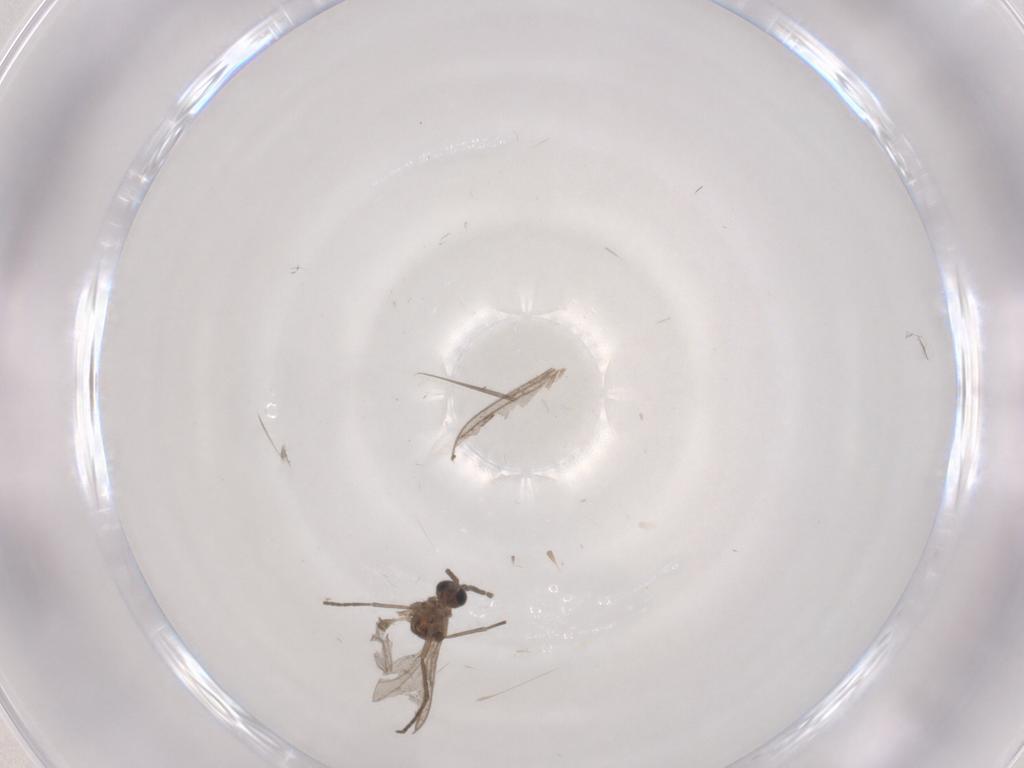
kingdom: Animalia
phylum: Arthropoda
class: Insecta
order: Diptera
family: Sciaridae
